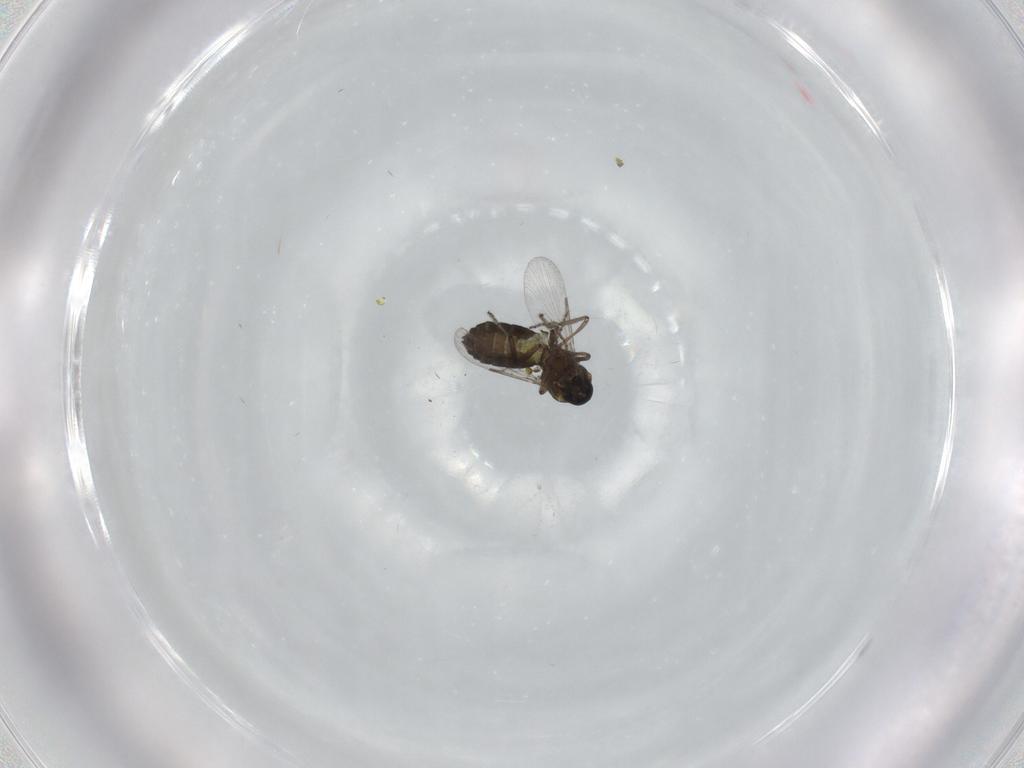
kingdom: Animalia
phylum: Arthropoda
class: Insecta
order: Diptera
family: Ceratopogonidae
